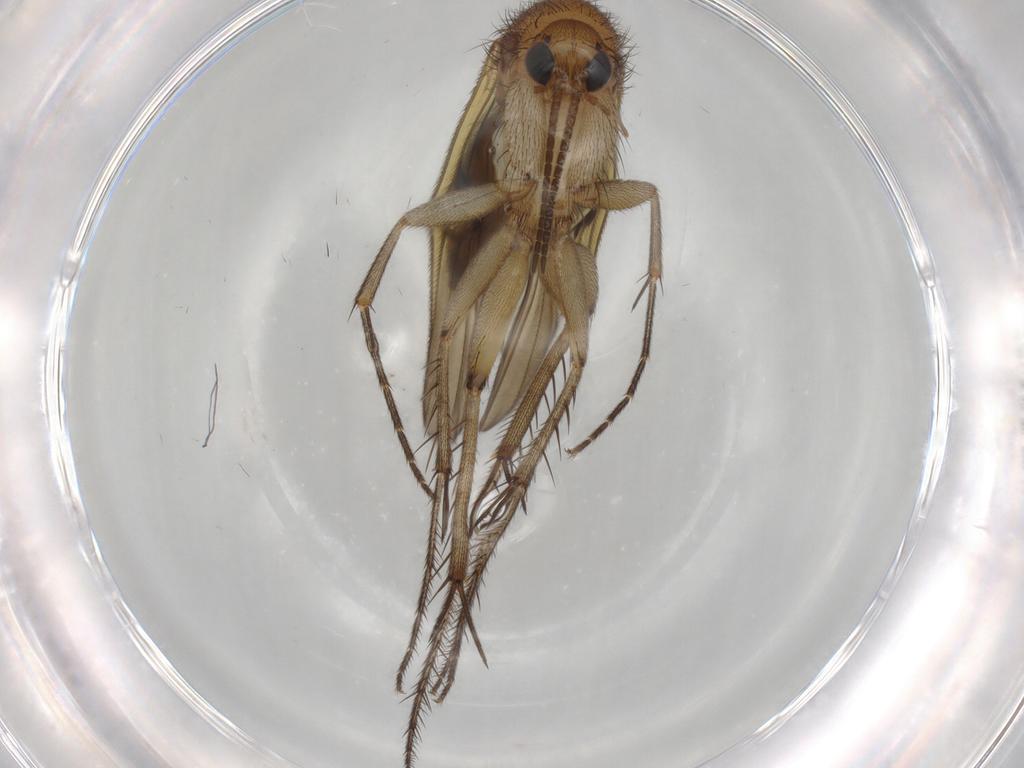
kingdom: Animalia
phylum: Arthropoda
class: Insecta
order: Diptera
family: Mycetophilidae
